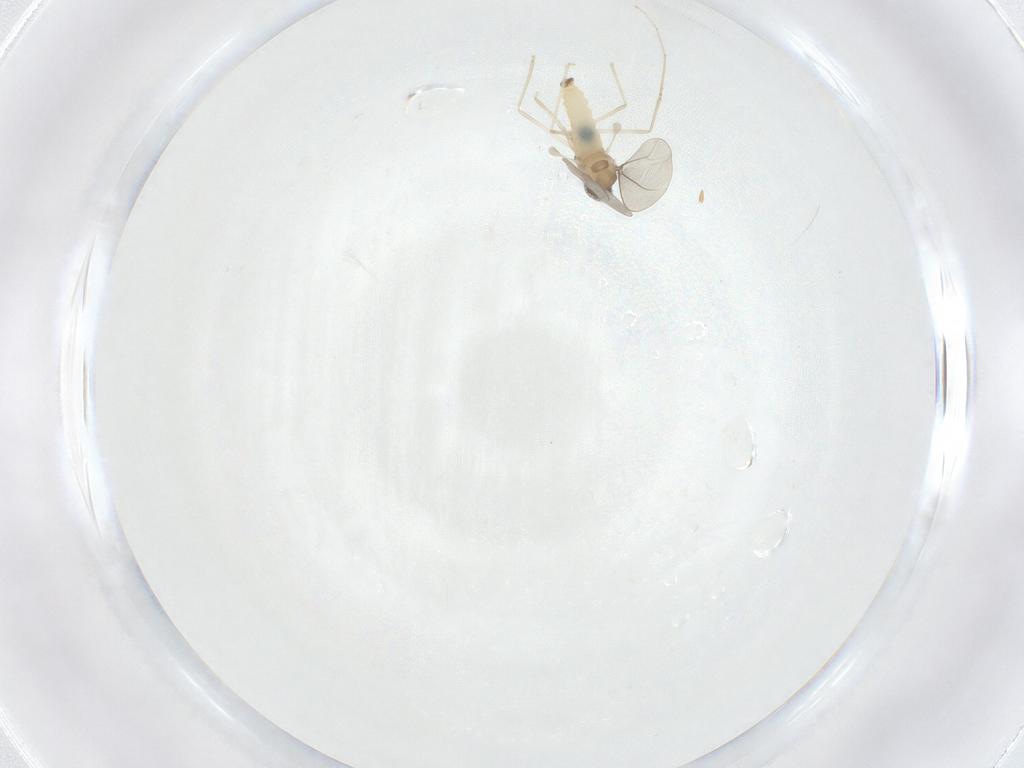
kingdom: Animalia
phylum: Arthropoda
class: Insecta
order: Diptera
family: Cecidomyiidae
